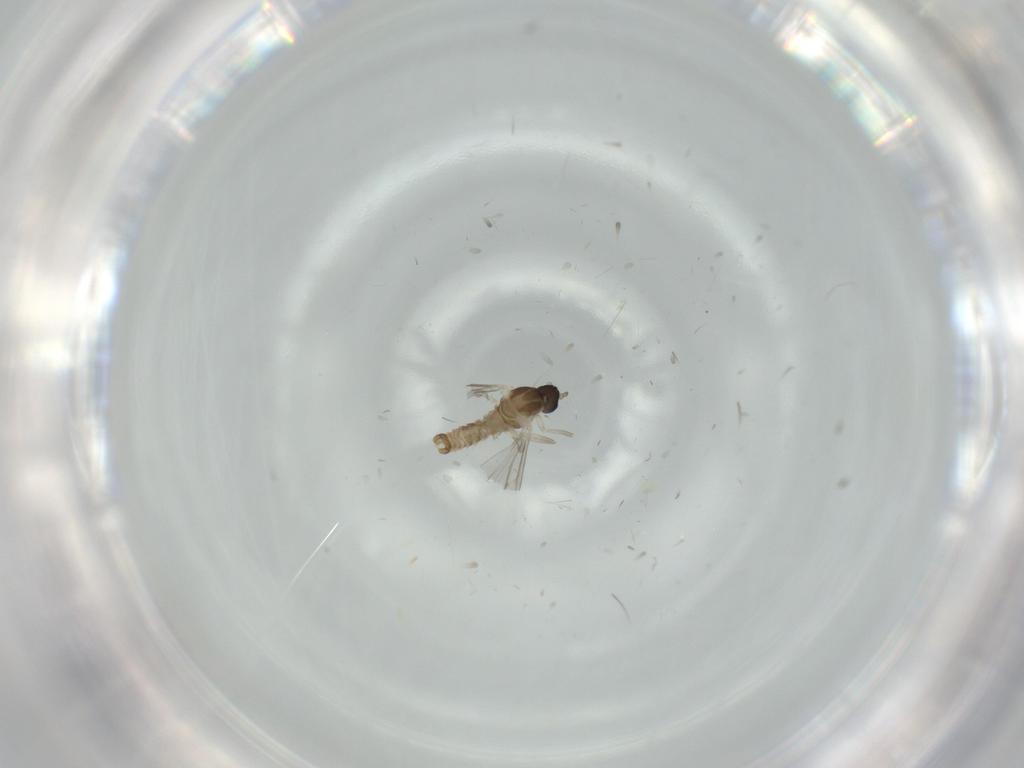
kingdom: Animalia
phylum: Arthropoda
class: Insecta
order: Diptera
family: Cecidomyiidae
